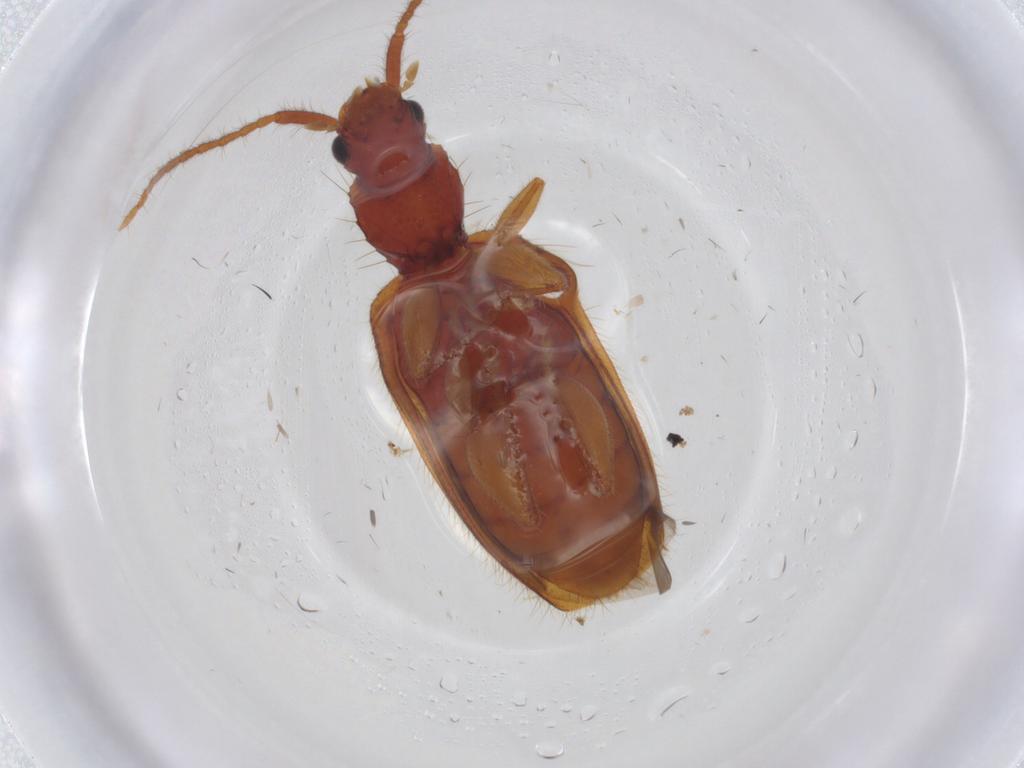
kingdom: Animalia
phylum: Arthropoda
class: Insecta
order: Coleoptera
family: Silvanidae
